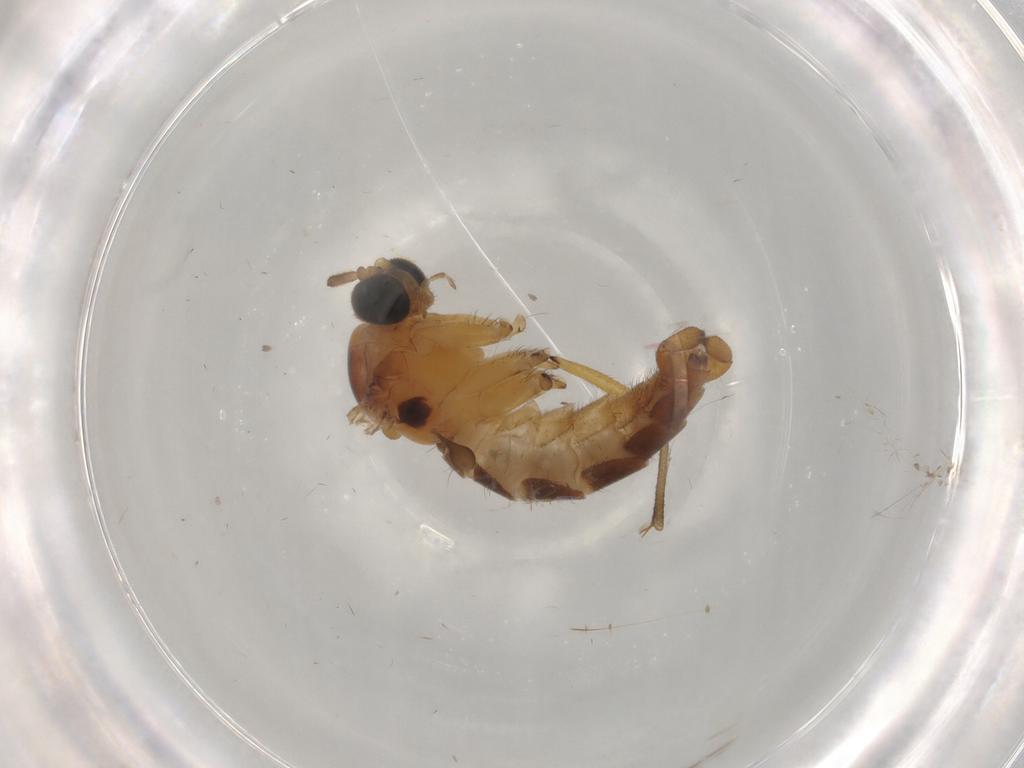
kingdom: Animalia
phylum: Arthropoda
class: Insecta
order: Diptera
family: Sciaridae
